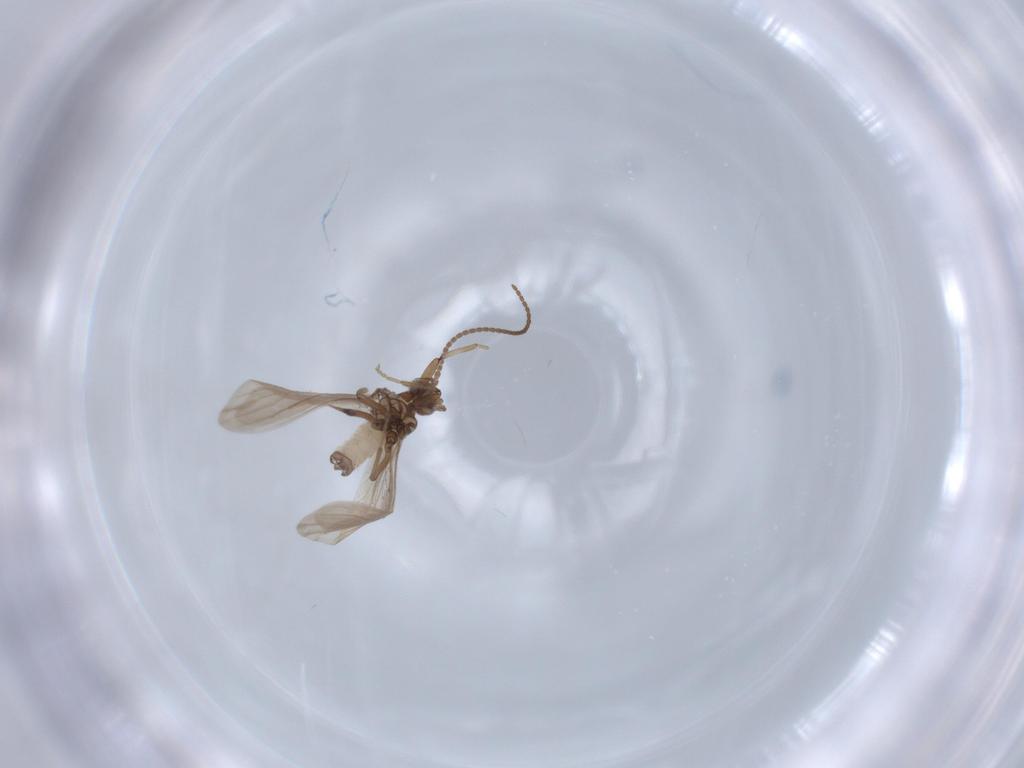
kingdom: Animalia
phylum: Arthropoda
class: Insecta
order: Neuroptera
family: Coniopterygidae
